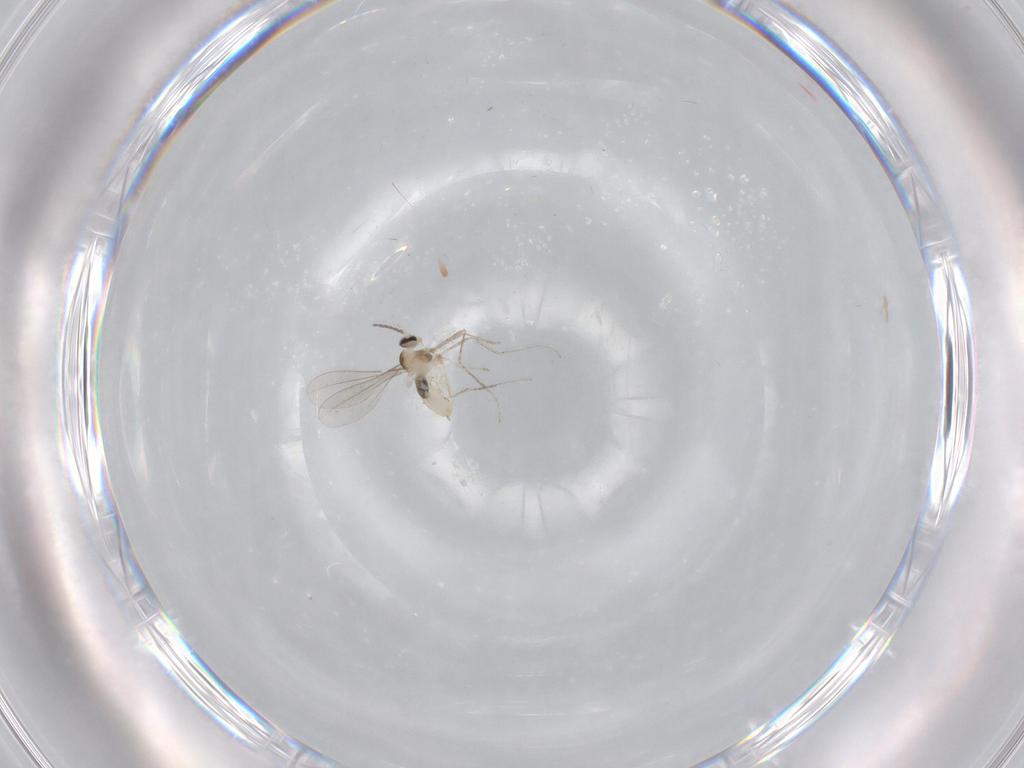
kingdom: Animalia
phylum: Arthropoda
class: Insecta
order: Diptera
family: Cecidomyiidae
